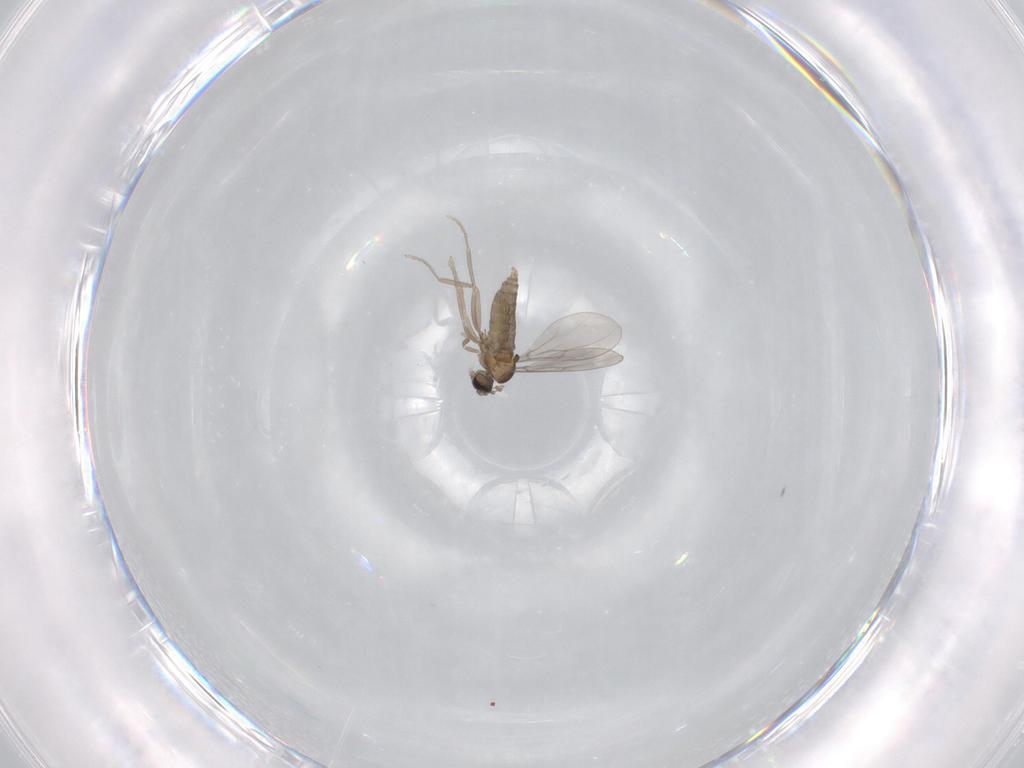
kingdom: Animalia
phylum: Arthropoda
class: Insecta
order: Diptera
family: Cecidomyiidae
